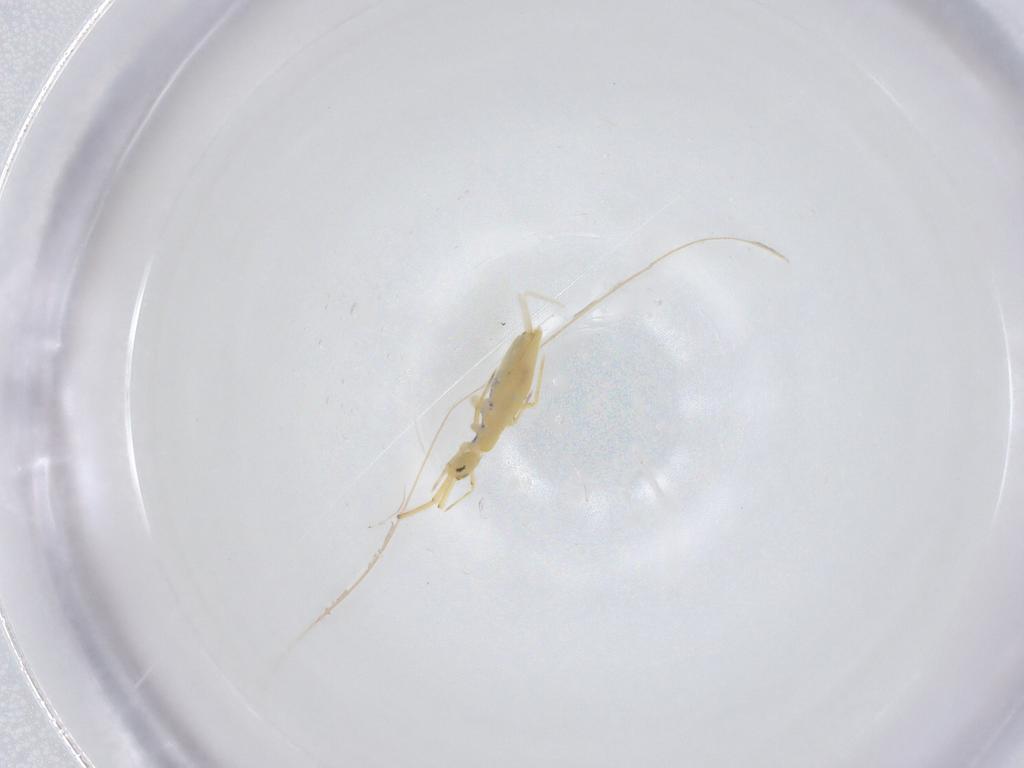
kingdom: Animalia
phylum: Arthropoda
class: Collembola
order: Entomobryomorpha
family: Paronellidae
